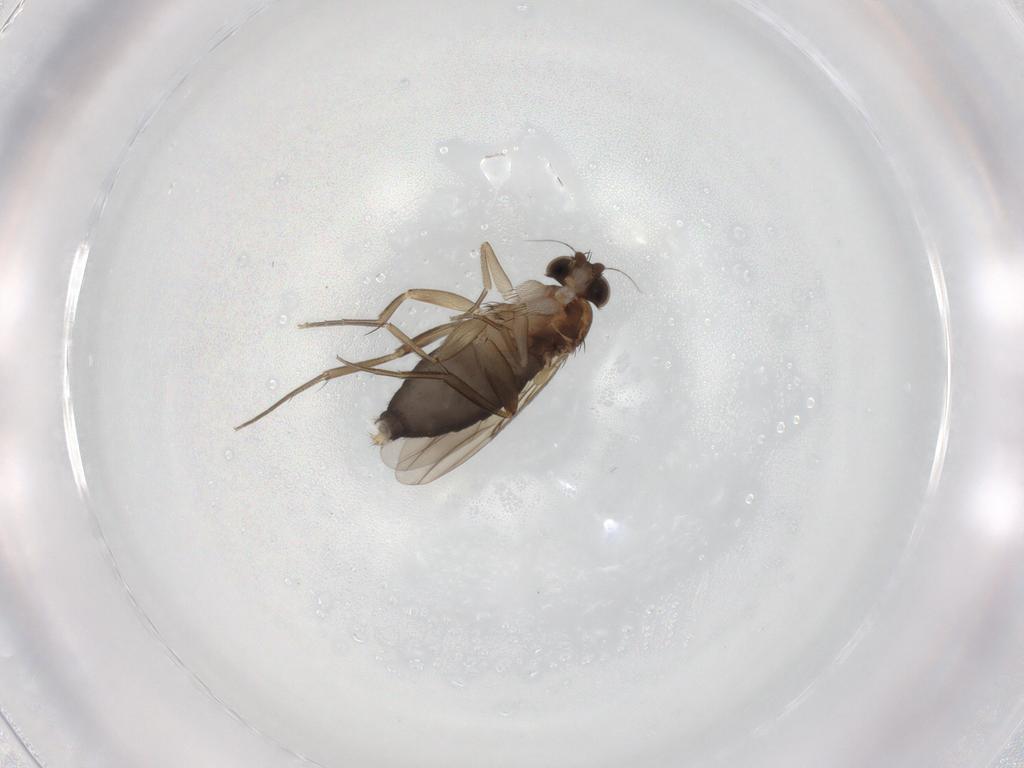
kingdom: Animalia
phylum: Arthropoda
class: Insecta
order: Diptera
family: Phoridae
